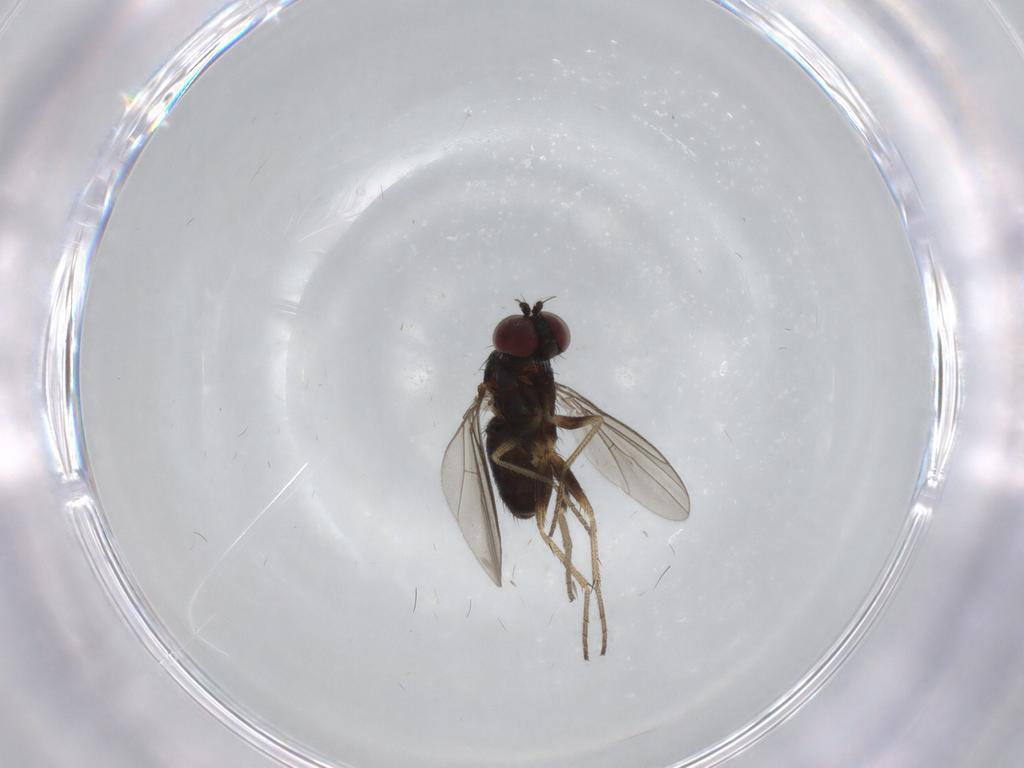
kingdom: Animalia
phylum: Arthropoda
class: Insecta
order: Diptera
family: Dolichopodidae
